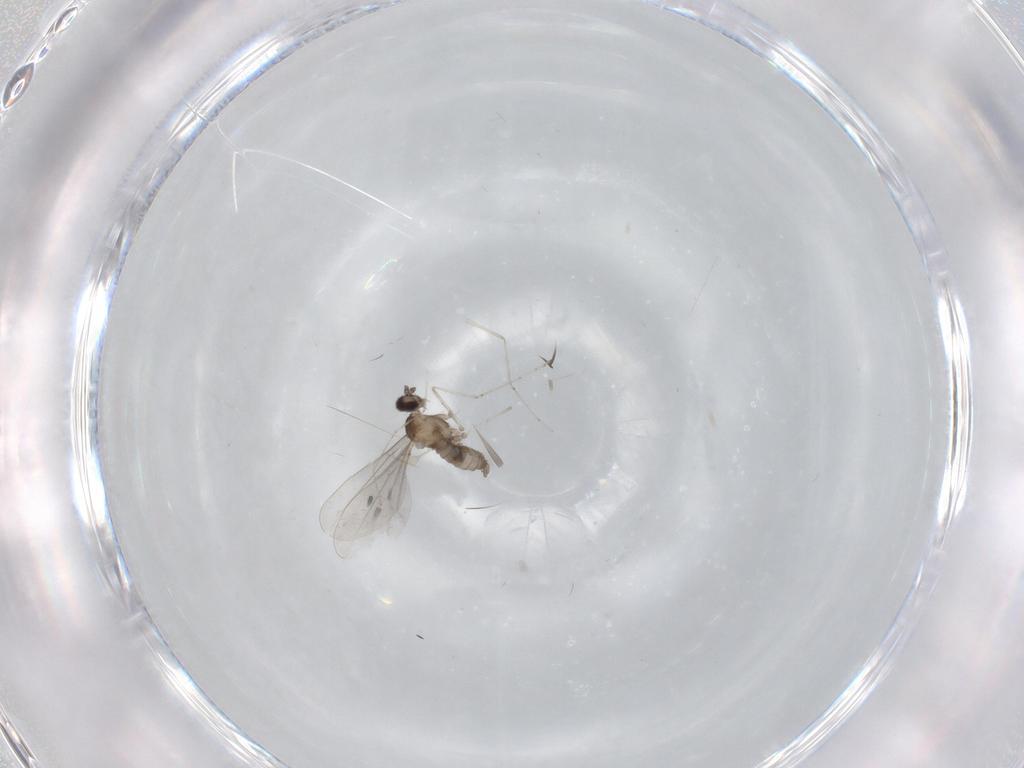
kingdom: Animalia
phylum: Arthropoda
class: Insecta
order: Diptera
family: Cecidomyiidae
